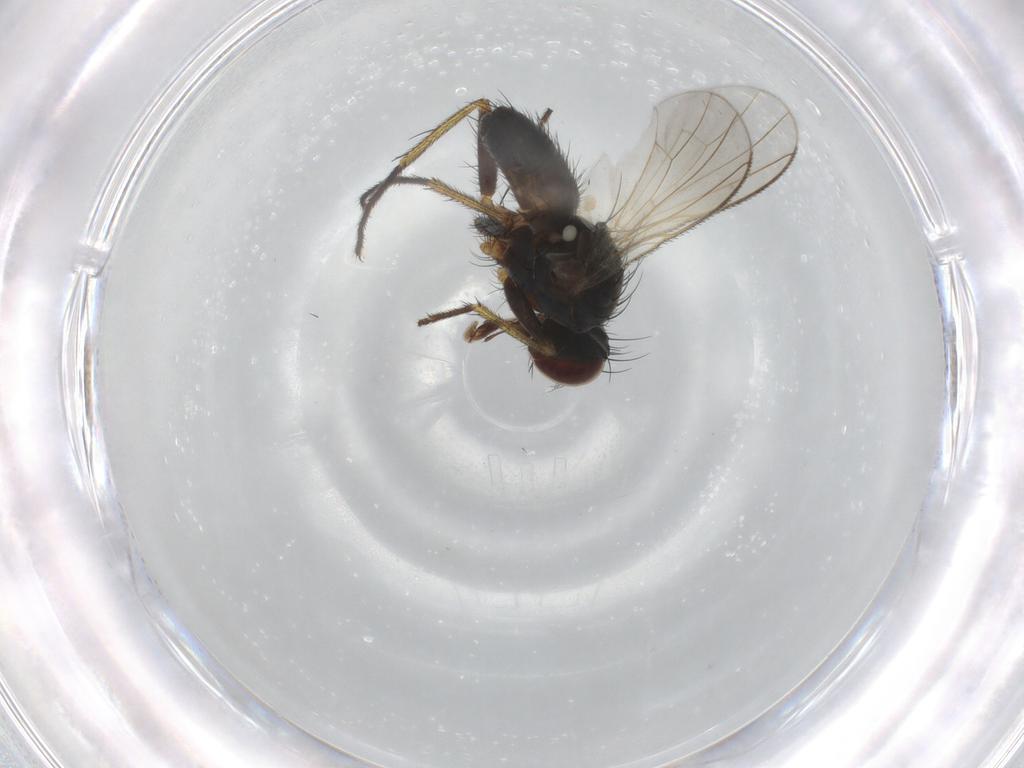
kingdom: Animalia
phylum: Arthropoda
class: Insecta
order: Diptera
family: Muscidae
